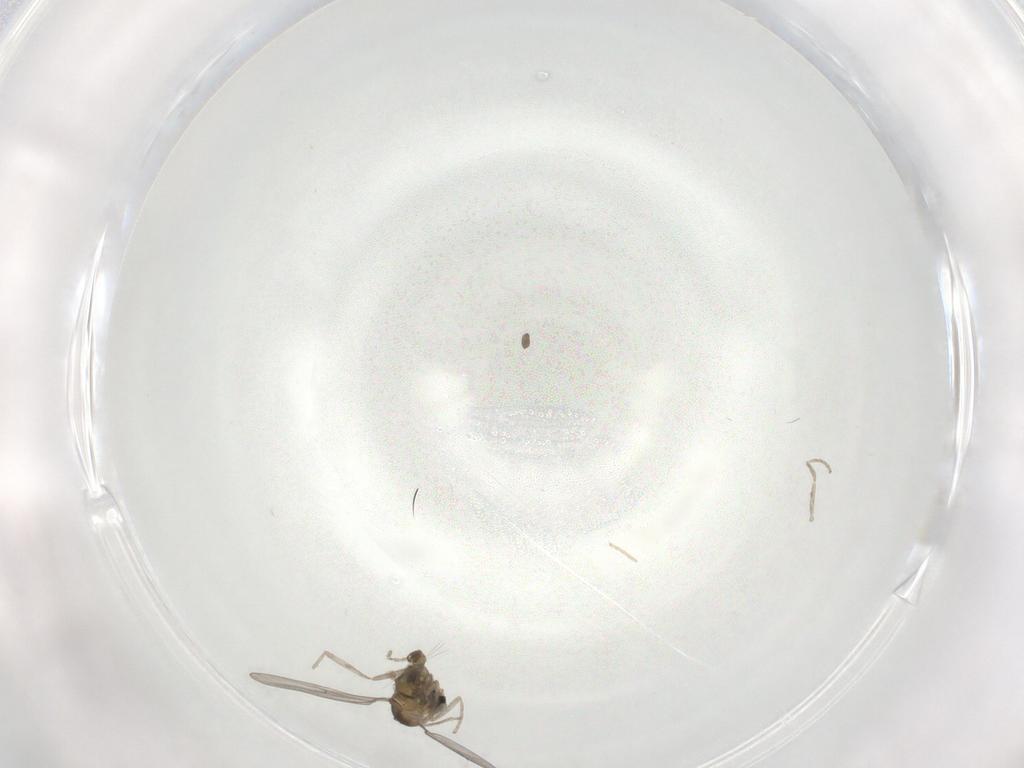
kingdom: Animalia
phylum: Arthropoda
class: Insecta
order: Diptera
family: Cecidomyiidae
